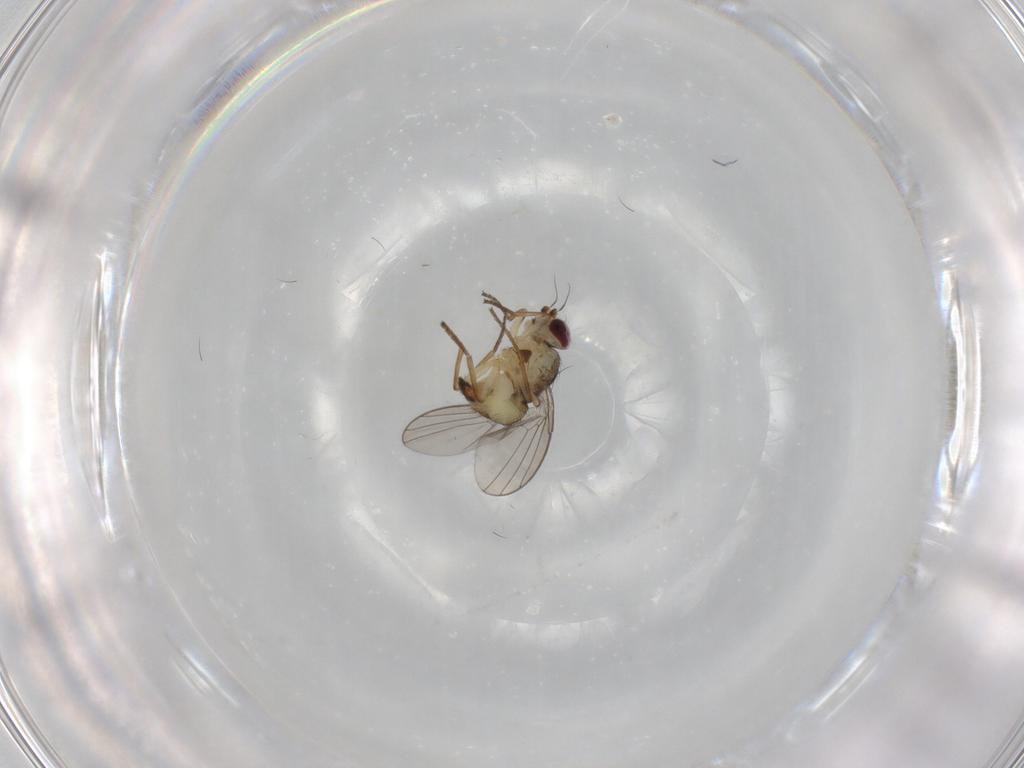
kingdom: Animalia
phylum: Arthropoda
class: Insecta
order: Diptera
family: Agromyzidae
